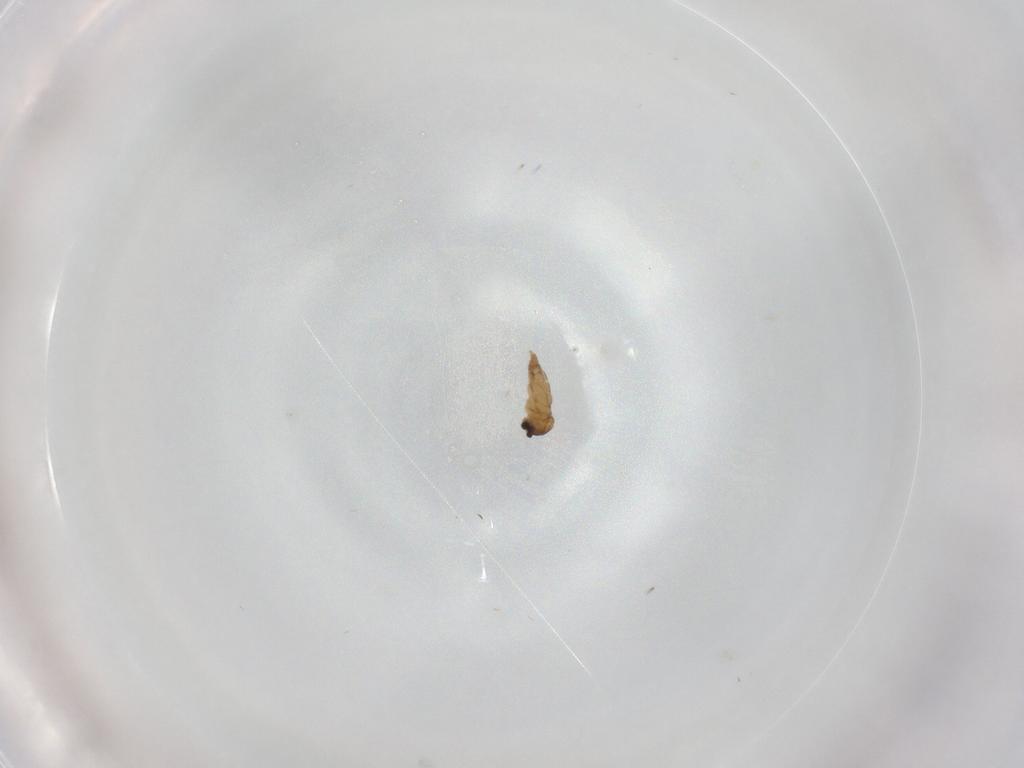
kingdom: Animalia
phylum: Arthropoda
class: Insecta
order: Diptera
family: Cecidomyiidae
